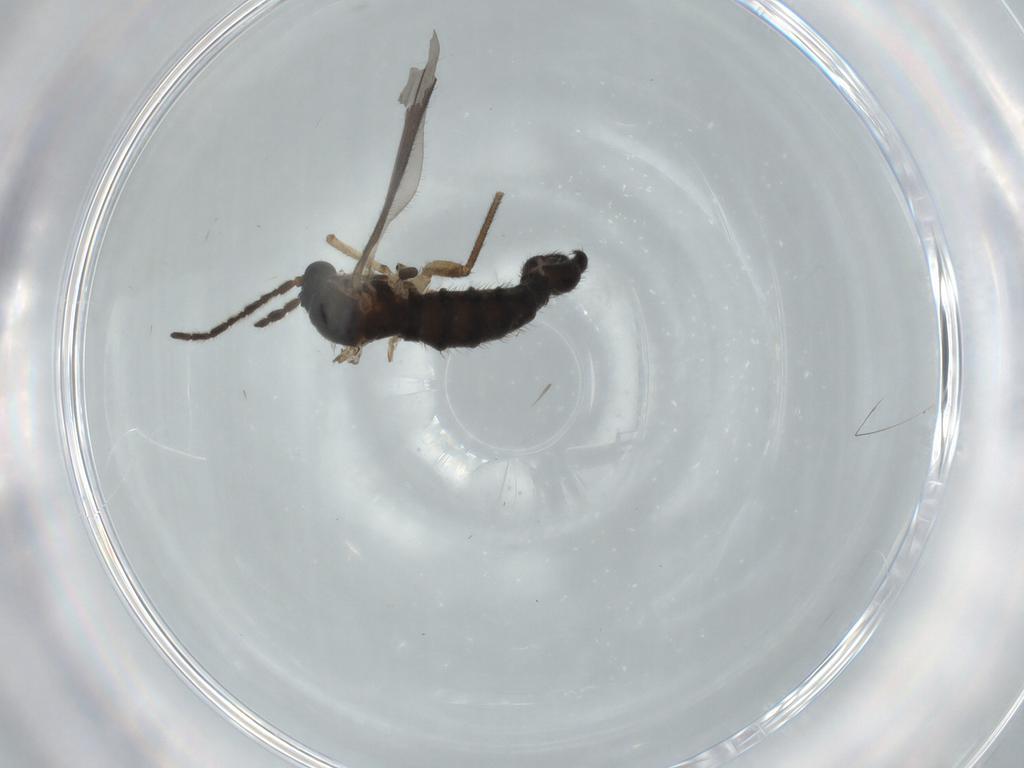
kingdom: Animalia
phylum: Arthropoda
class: Insecta
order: Diptera
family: Sciaridae
